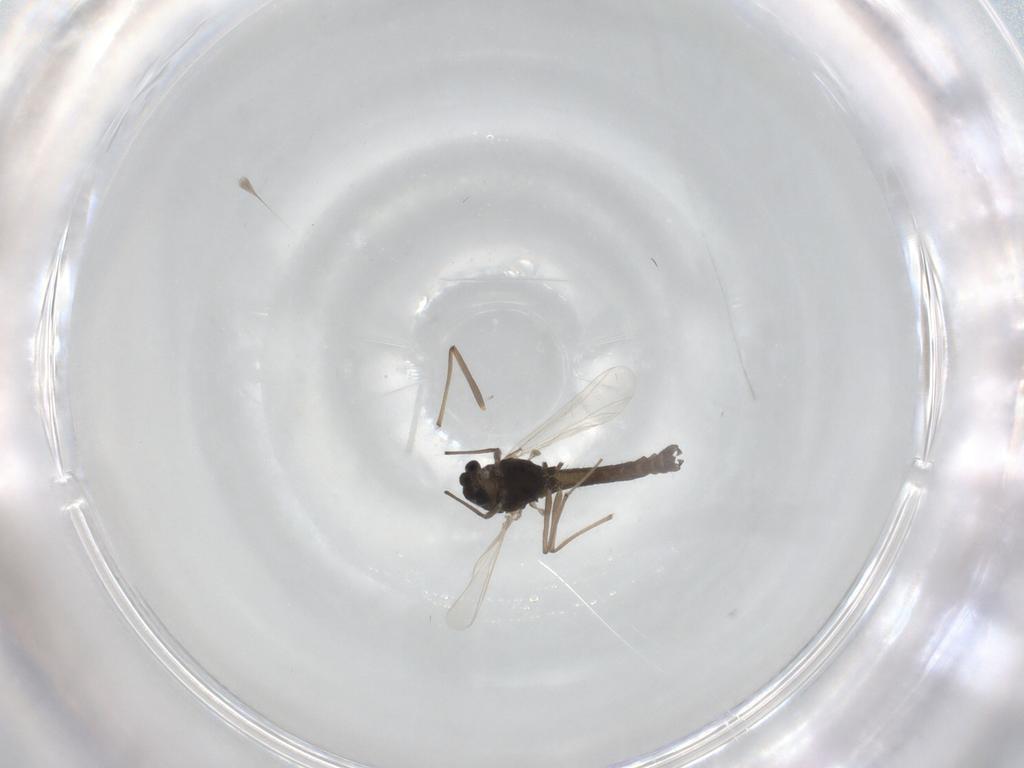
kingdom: Animalia
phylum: Arthropoda
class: Insecta
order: Diptera
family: Chironomidae
